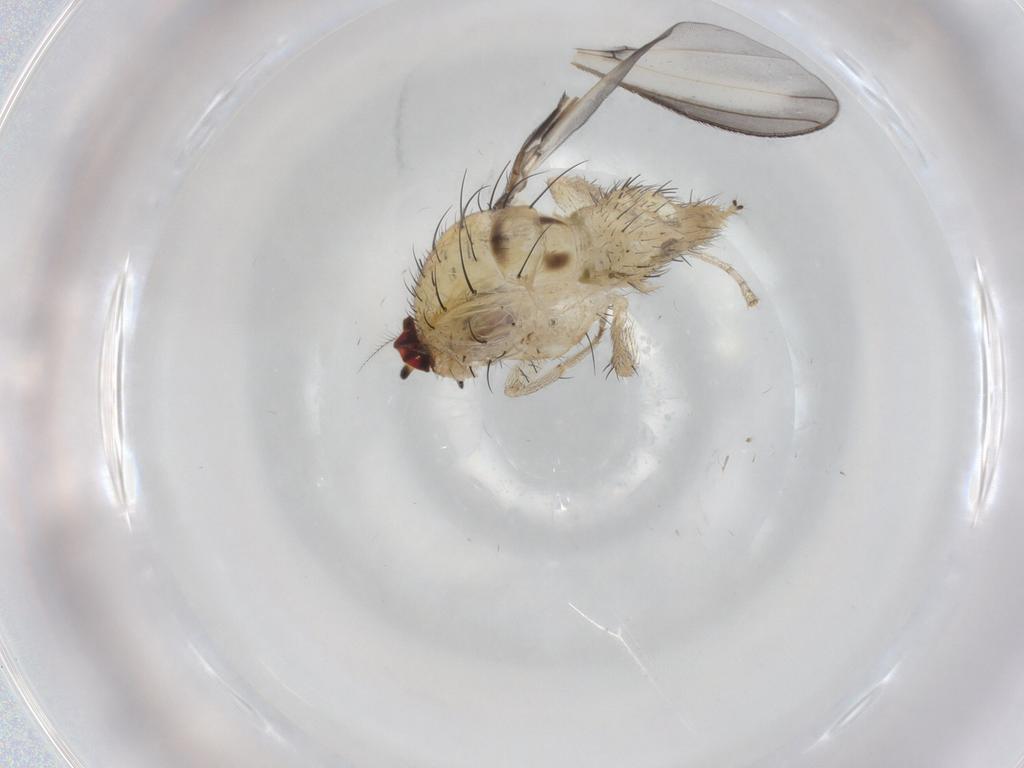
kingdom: Animalia
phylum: Arthropoda
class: Insecta
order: Diptera
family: Lauxaniidae
